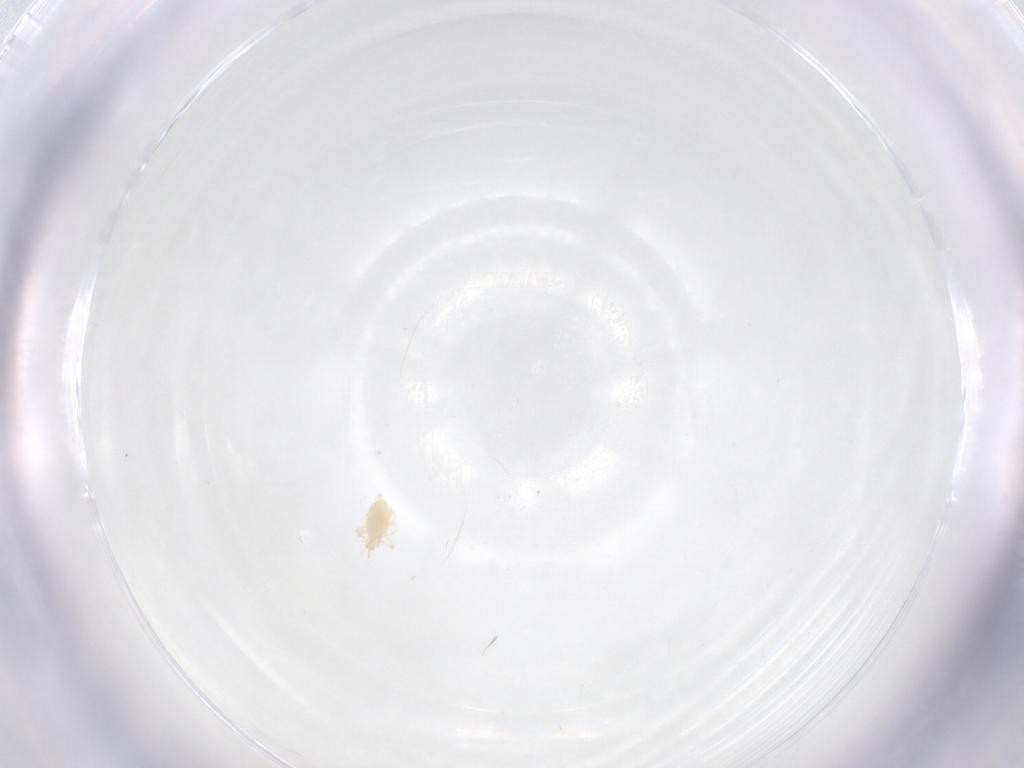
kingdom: Animalia
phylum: Arthropoda
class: Arachnida
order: Trombidiformes
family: Cunaxidae
